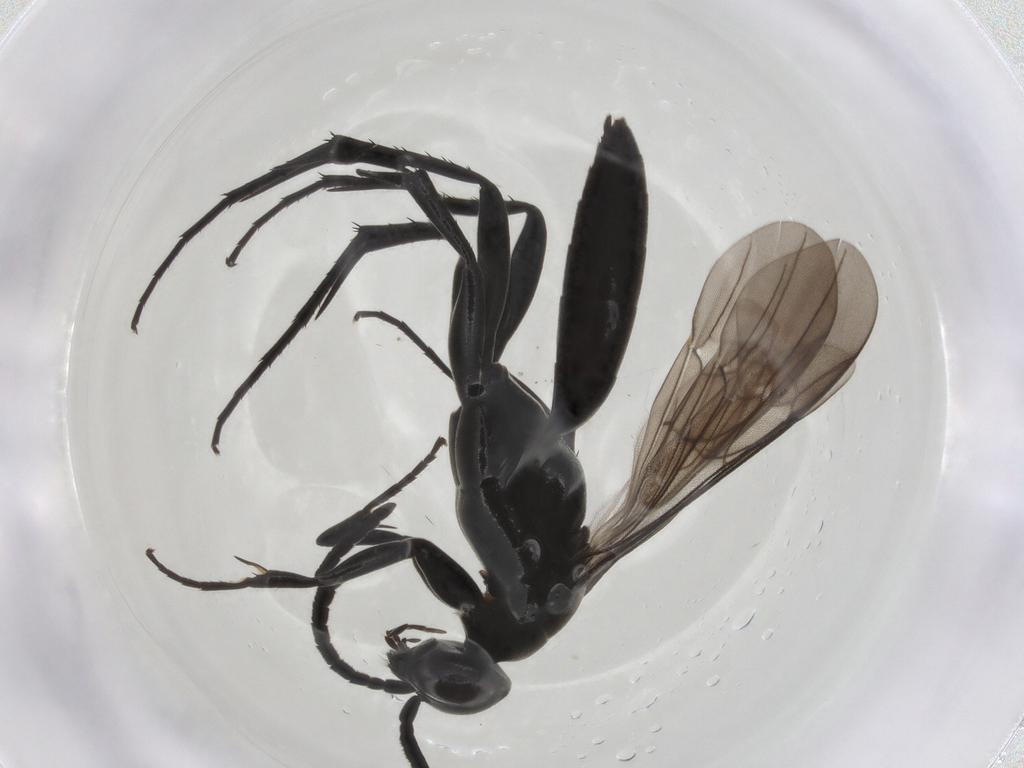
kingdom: Animalia
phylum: Arthropoda
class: Insecta
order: Hymenoptera
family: Pompilidae
